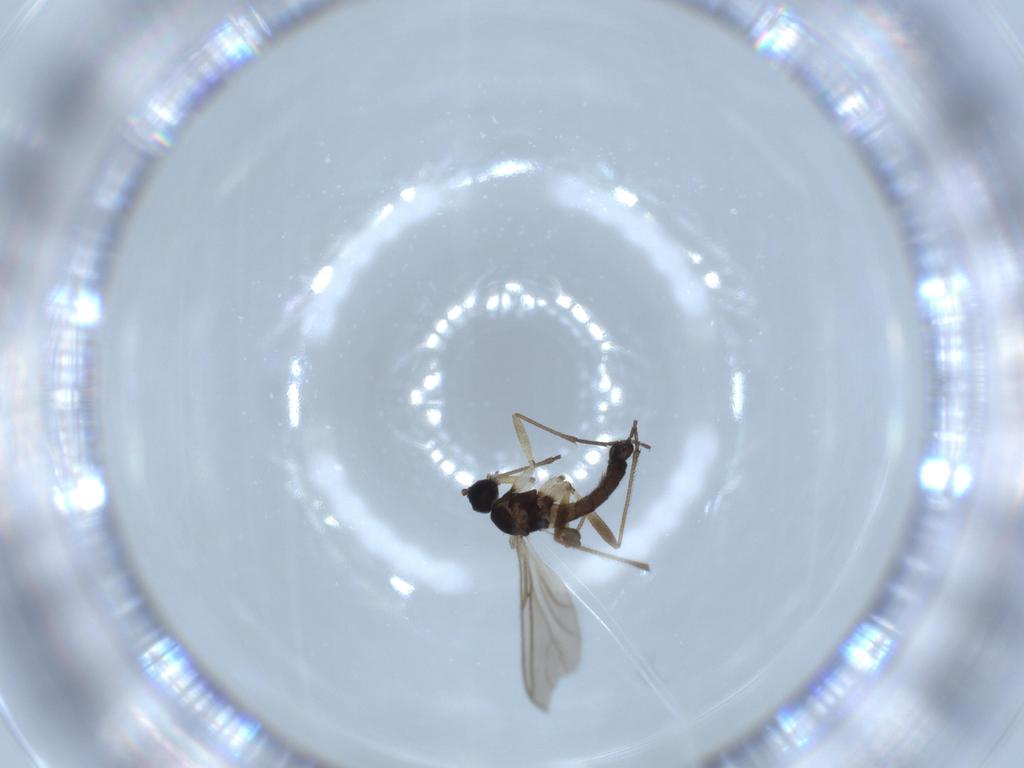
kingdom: Animalia
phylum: Arthropoda
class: Insecta
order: Diptera
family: Sciaridae
